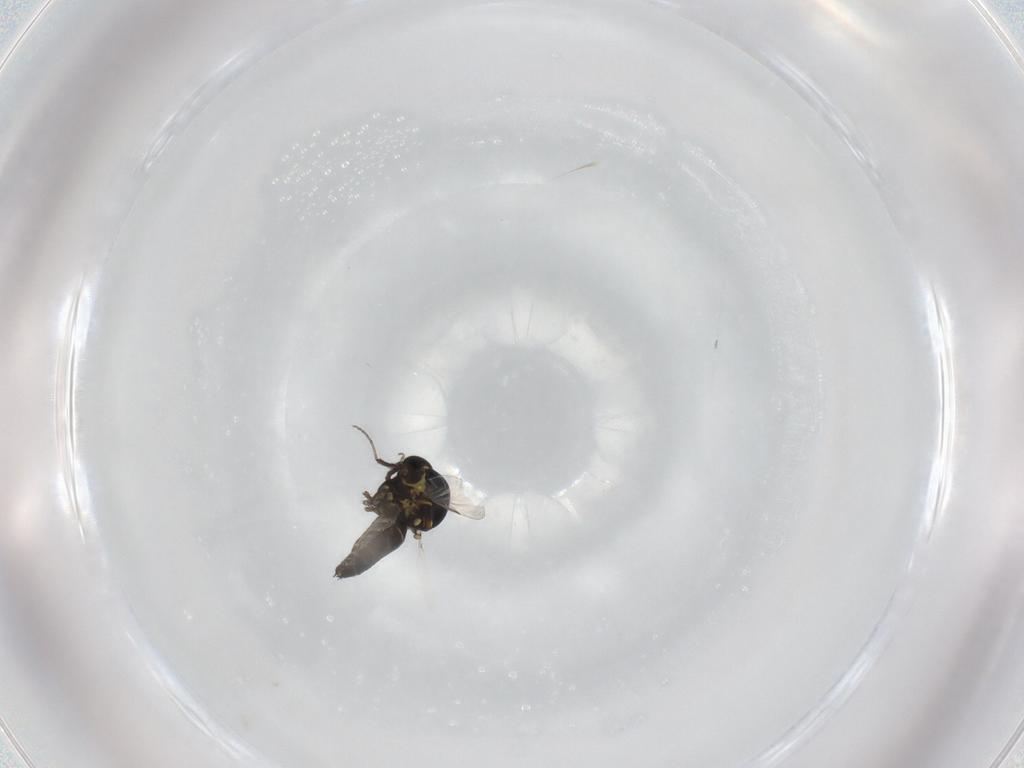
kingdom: Animalia
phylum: Arthropoda
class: Insecta
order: Diptera
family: Ceratopogonidae
